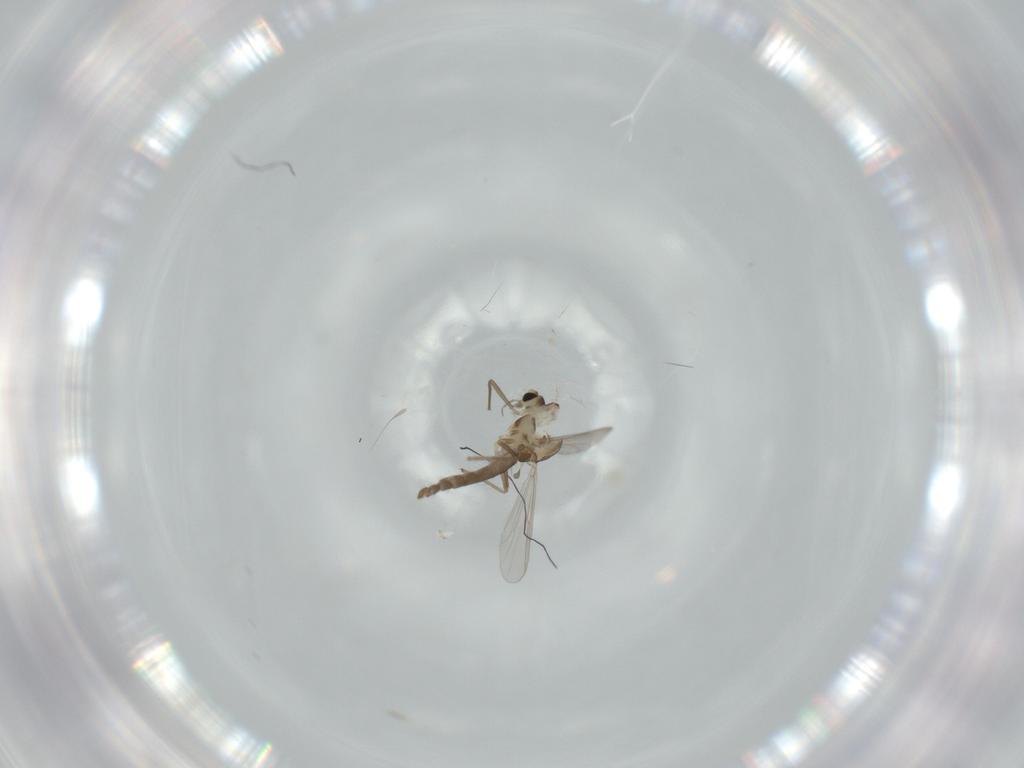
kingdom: Animalia
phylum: Arthropoda
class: Insecta
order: Diptera
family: Chironomidae
